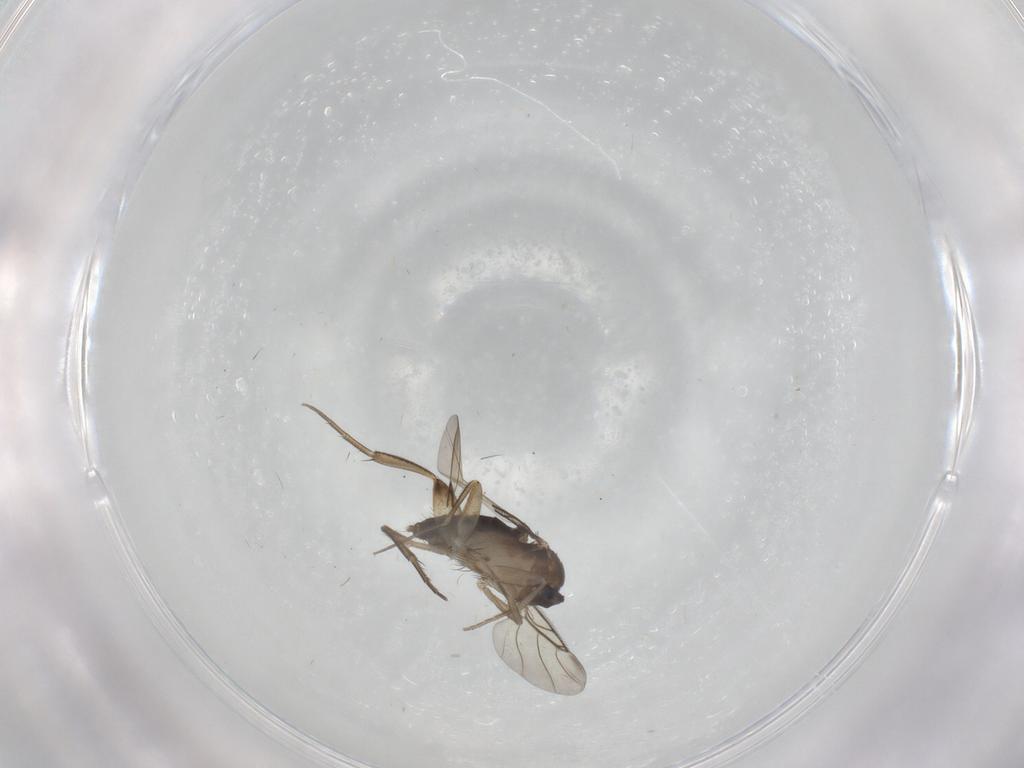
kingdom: Animalia
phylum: Arthropoda
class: Insecta
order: Diptera
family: Phoridae
